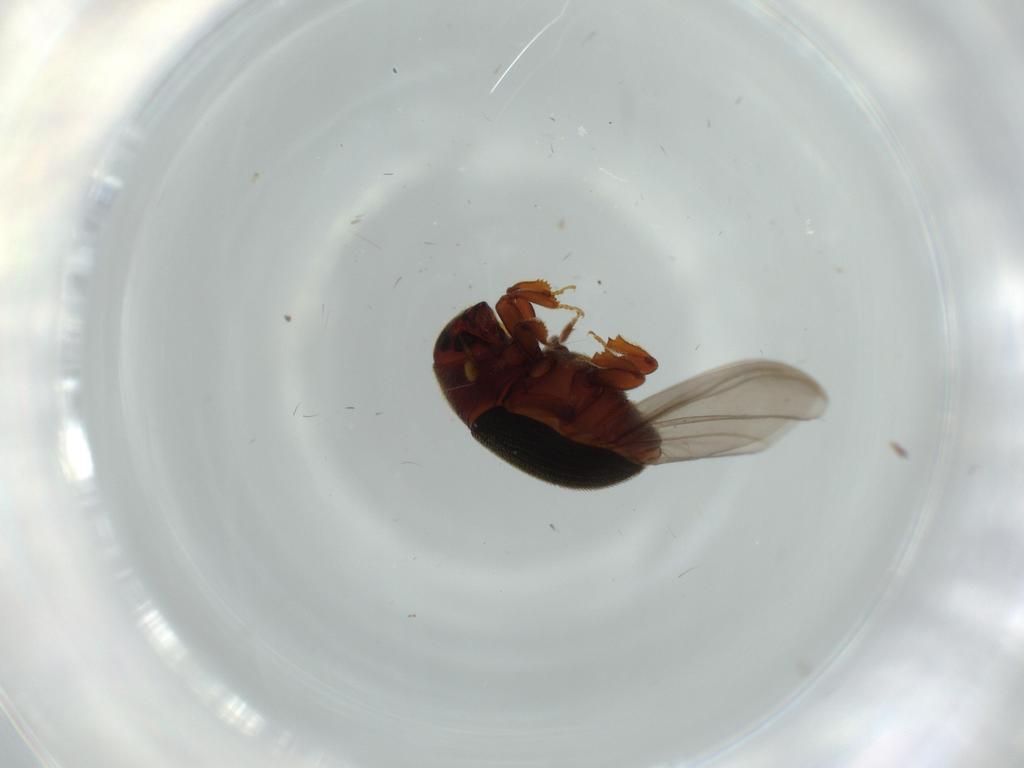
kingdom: Animalia
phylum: Arthropoda
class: Insecta
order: Coleoptera
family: Curculionidae
